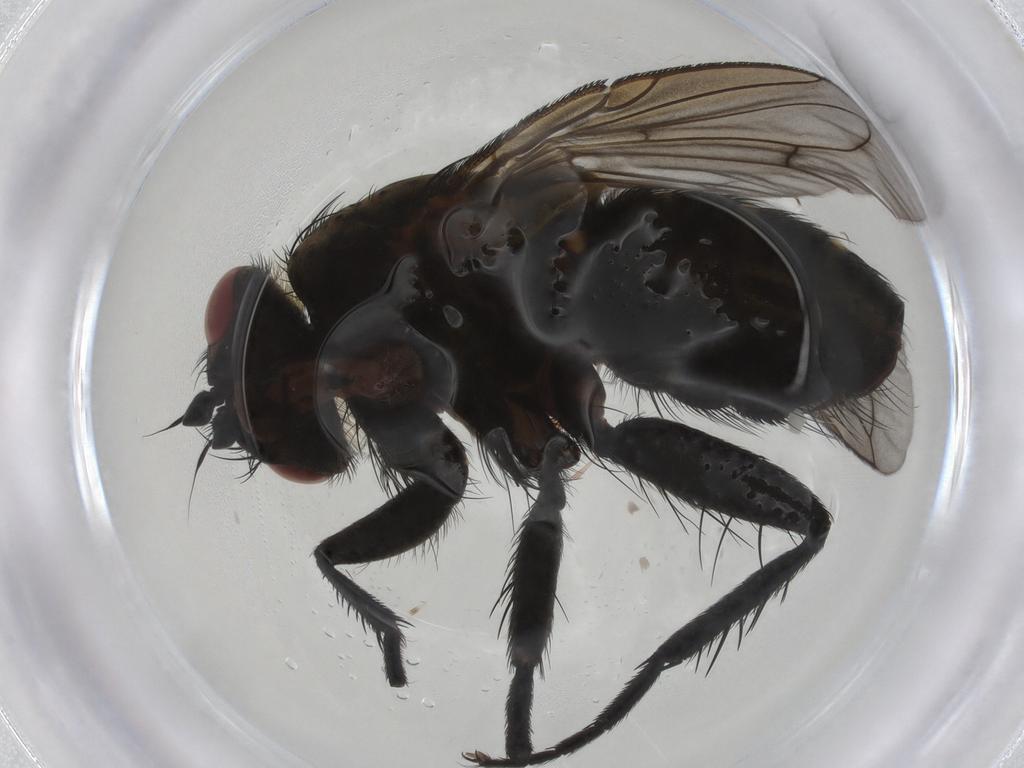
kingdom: Animalia
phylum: Arthropoda
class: Insecta
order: Diptera
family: Tachinidae
